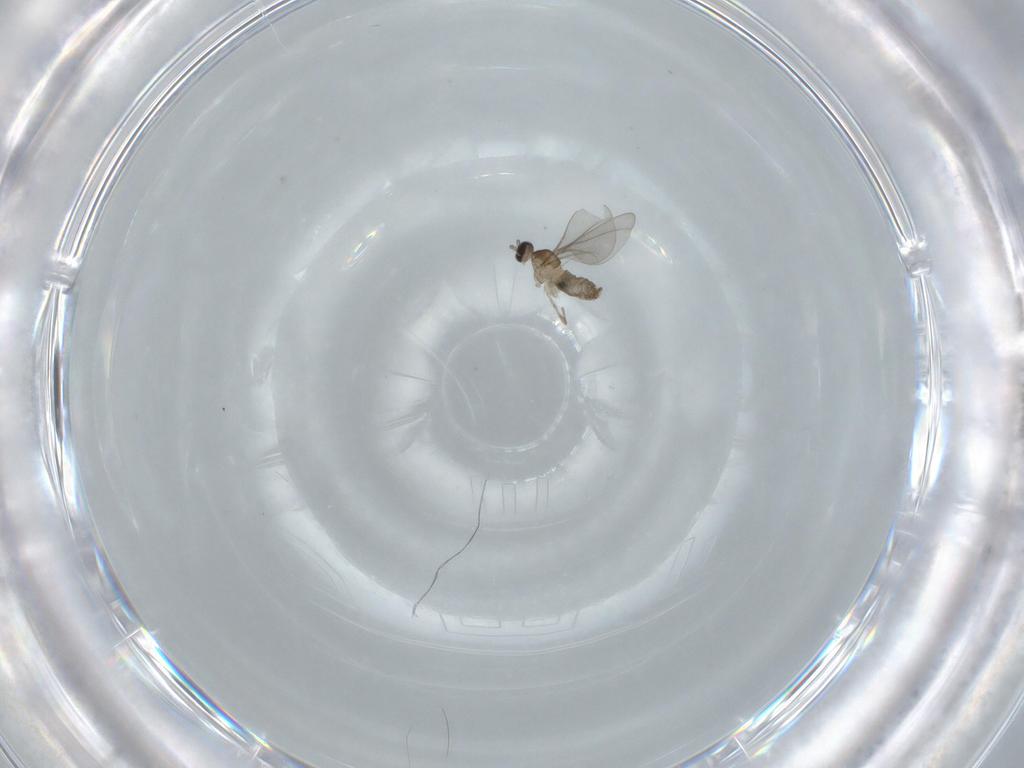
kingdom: Animalia
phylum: Arthropoda
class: Insecta
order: Diptera
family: Cecidomyiidae
